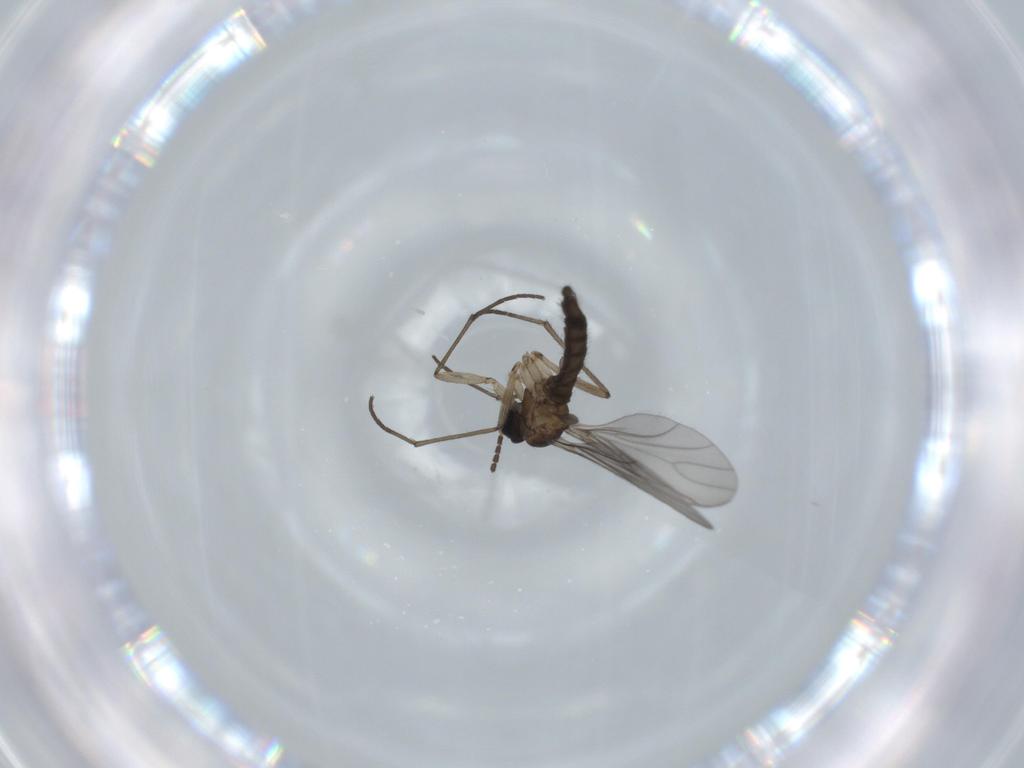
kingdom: Animalia
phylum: Arthropoda
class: Insecta
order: Diptera
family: Sciaridae
